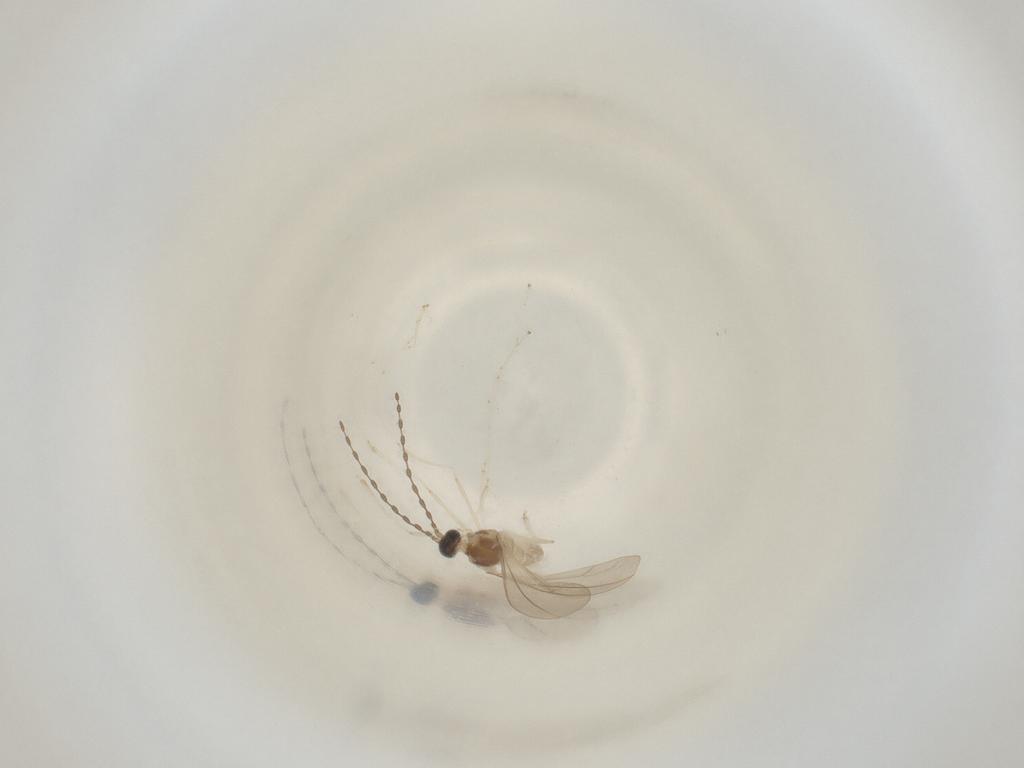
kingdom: Animalia
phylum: Arthropoda
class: Insecta
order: Diptera
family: Cecidomyiidae
